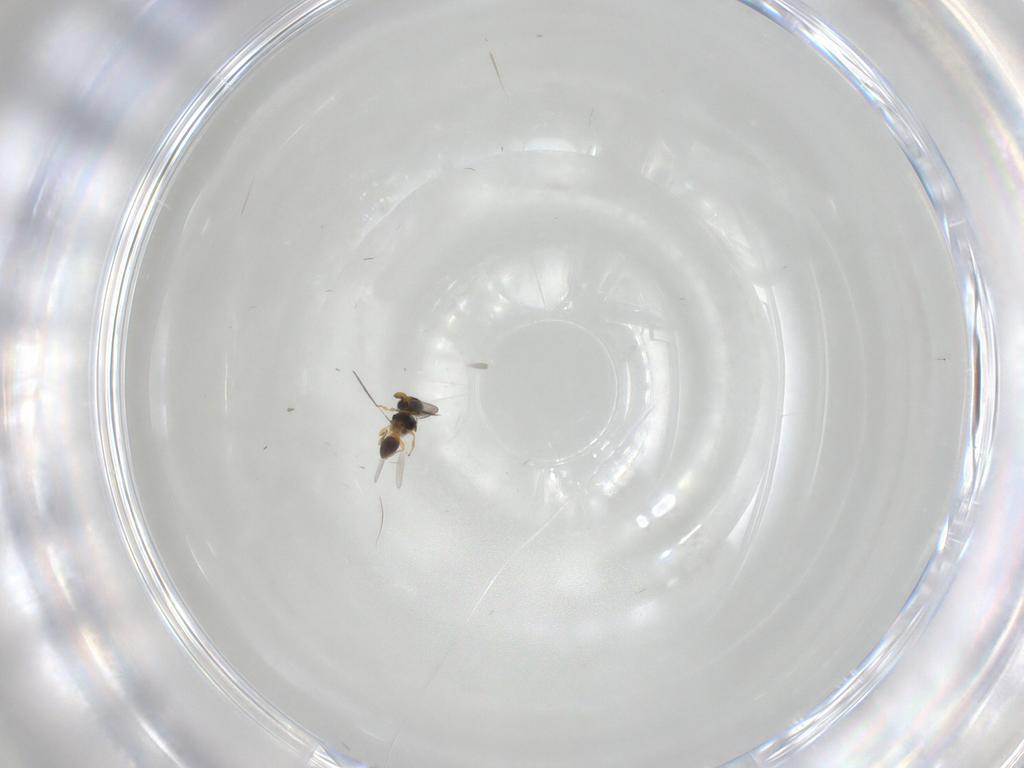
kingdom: Animalia
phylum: Arthropoda
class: Insecta
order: Hymenoptera
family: Platygastridae
